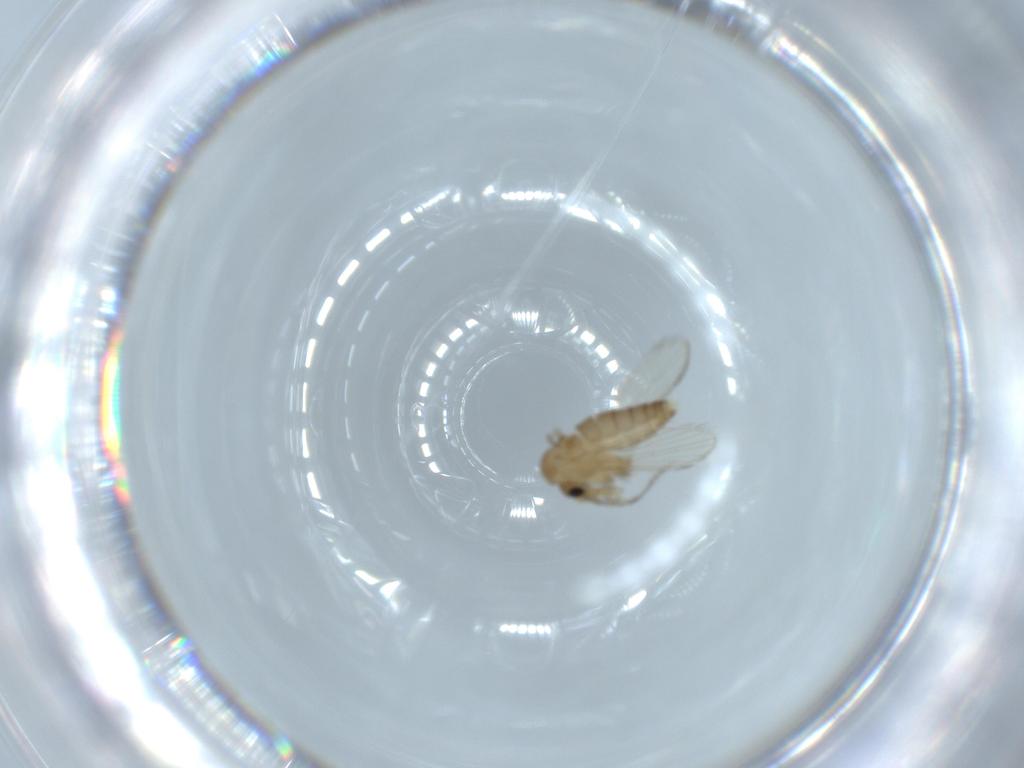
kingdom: Animalia
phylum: Arthropoda
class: Insecta
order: Diptera
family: Psychodidae
